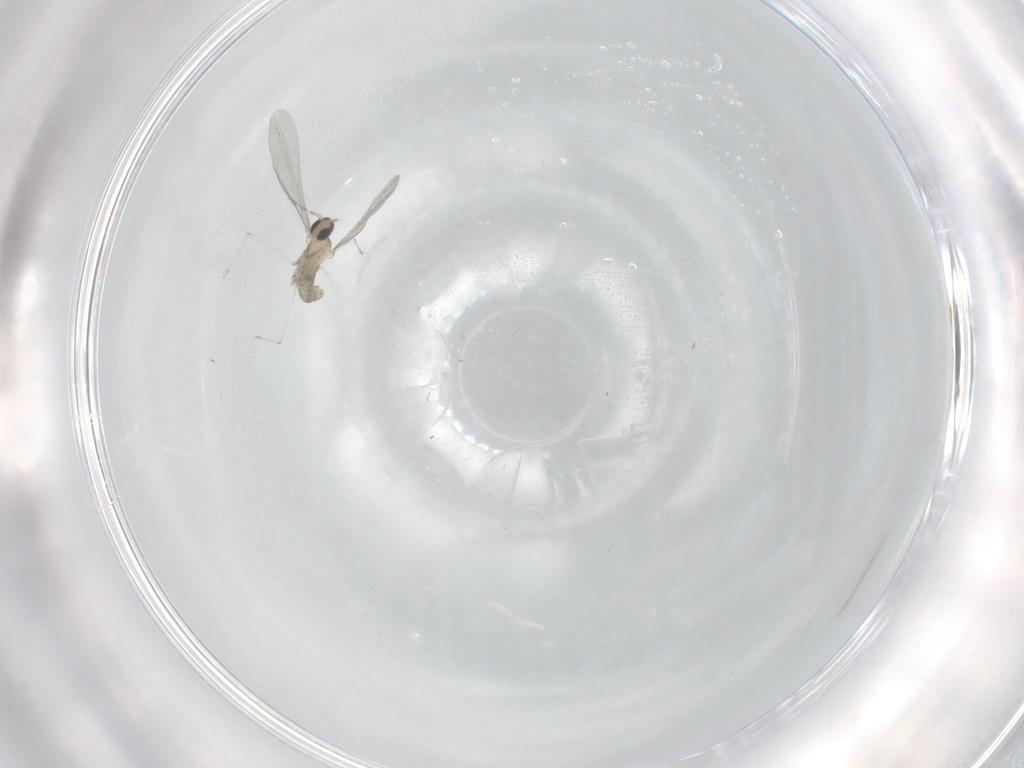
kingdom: Animalia
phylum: Arthropoda
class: Insecta
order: Diptera
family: Cecidomyiidae
